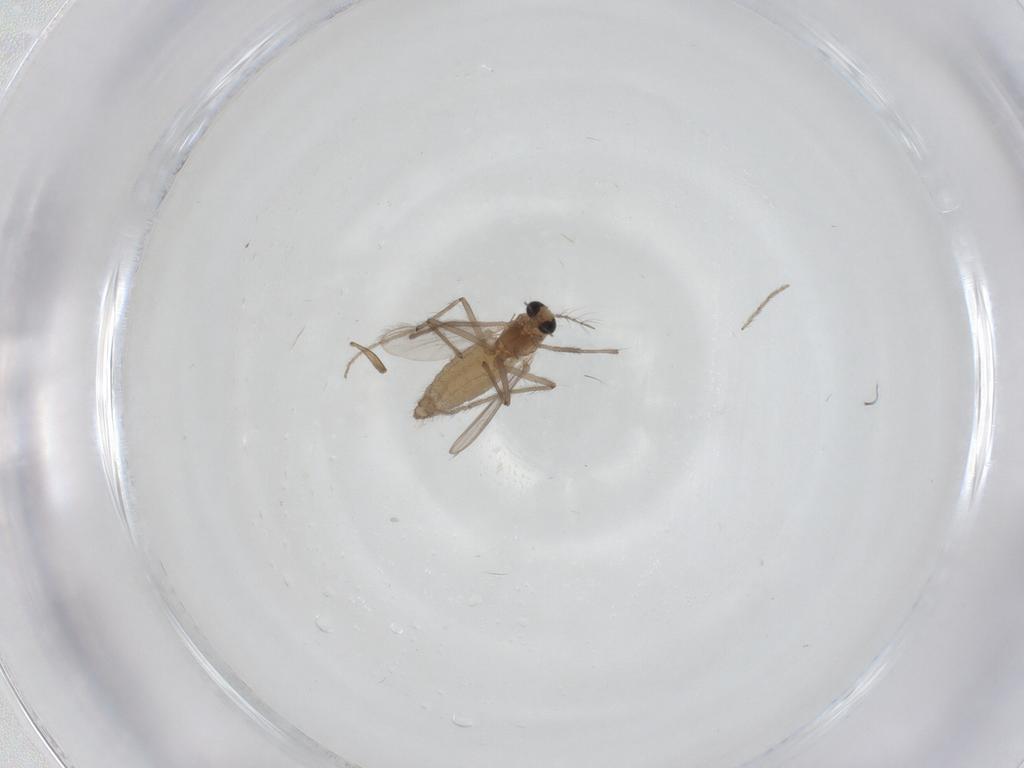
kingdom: Animalia
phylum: Arthropoda
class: Insecta
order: Diptera
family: Chironomidae
